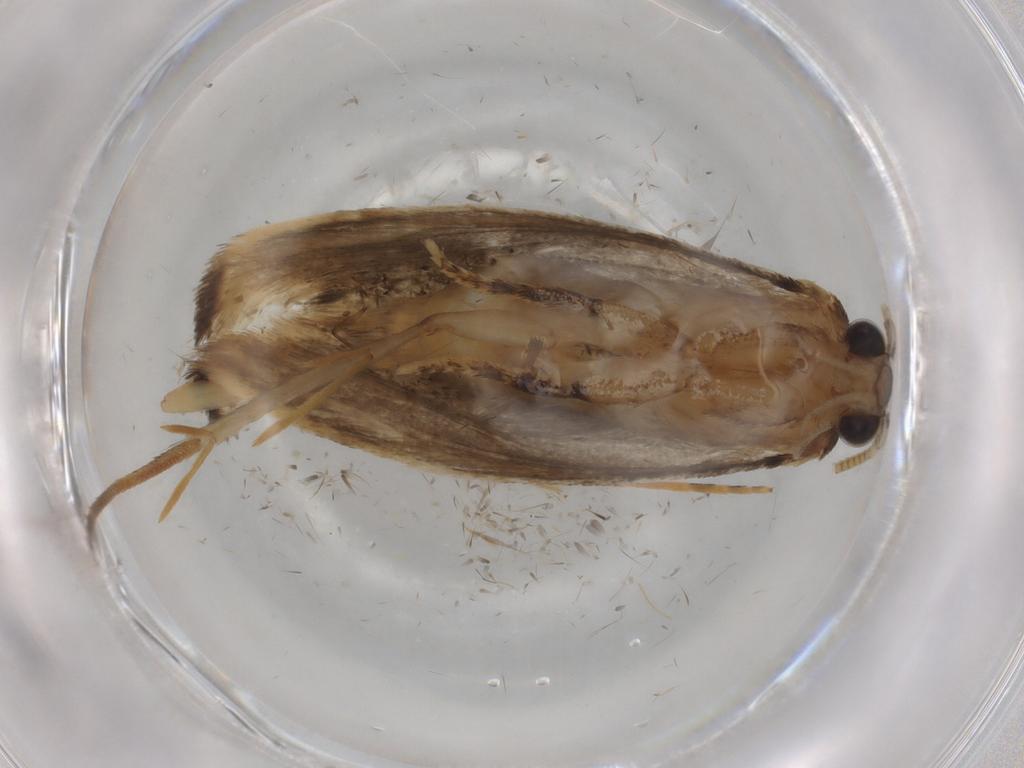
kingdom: Animalia
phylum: Arthropoda
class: Insecta
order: Lepidoptera
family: Tineidae
